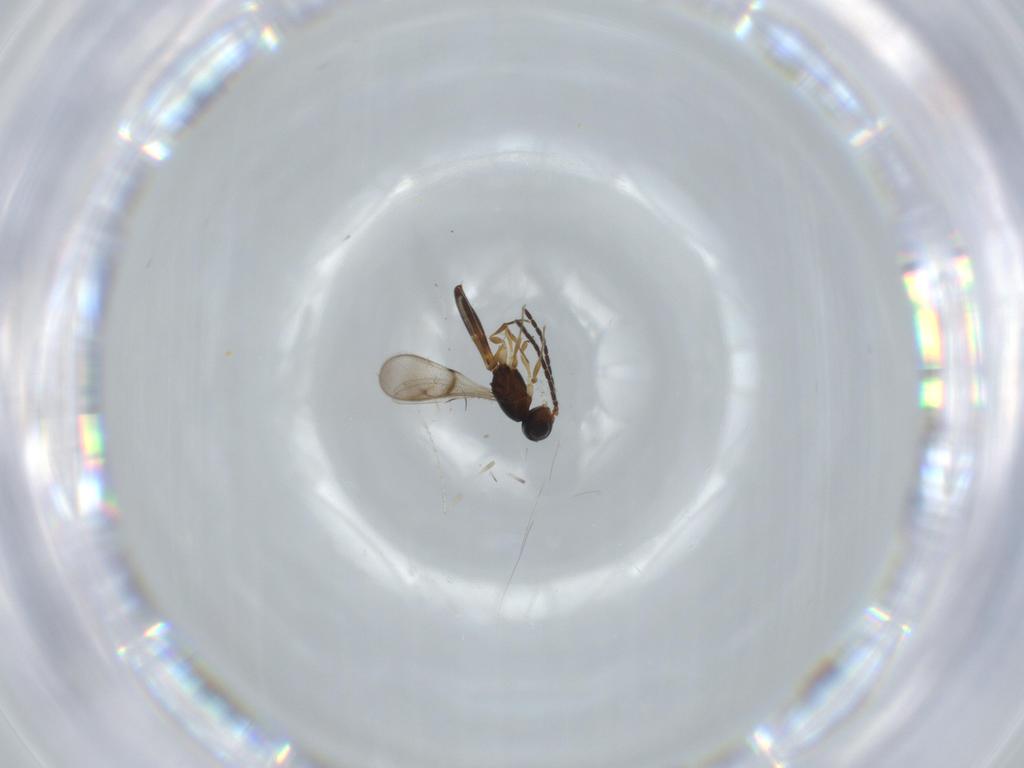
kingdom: Animalia
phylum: Arthropoda
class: Insecta
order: Hymenoptera
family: Scelionidae
